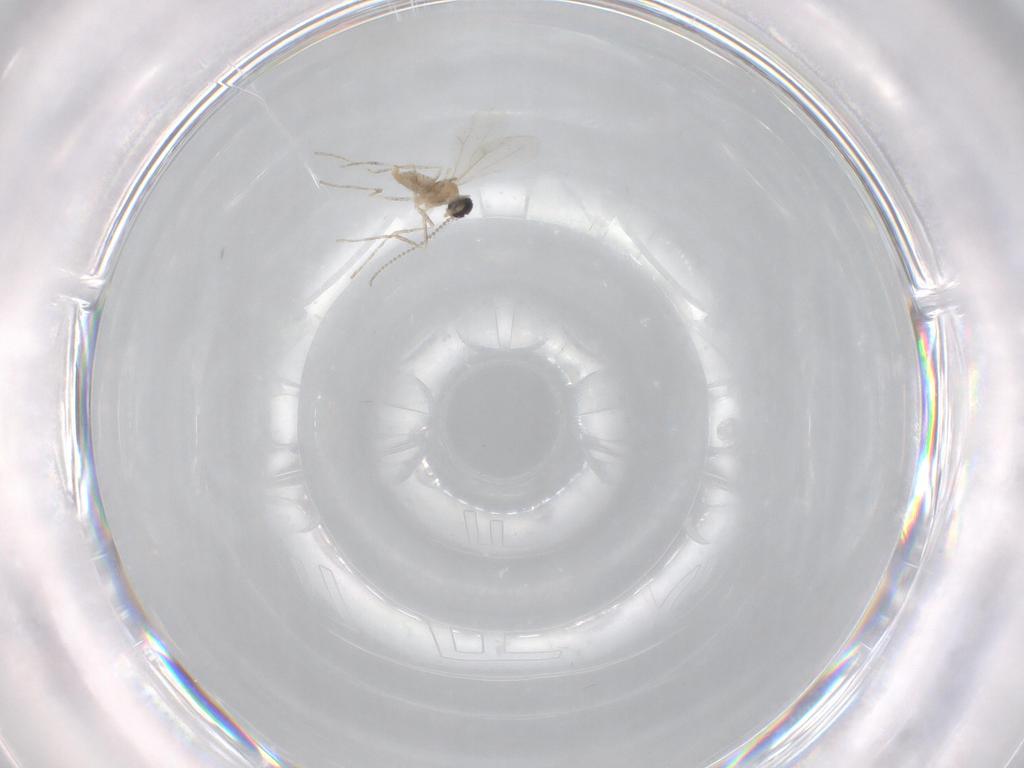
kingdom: Animalia
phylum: Arthropoda
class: Insecta
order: Diptera
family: Cecidomyiidae
